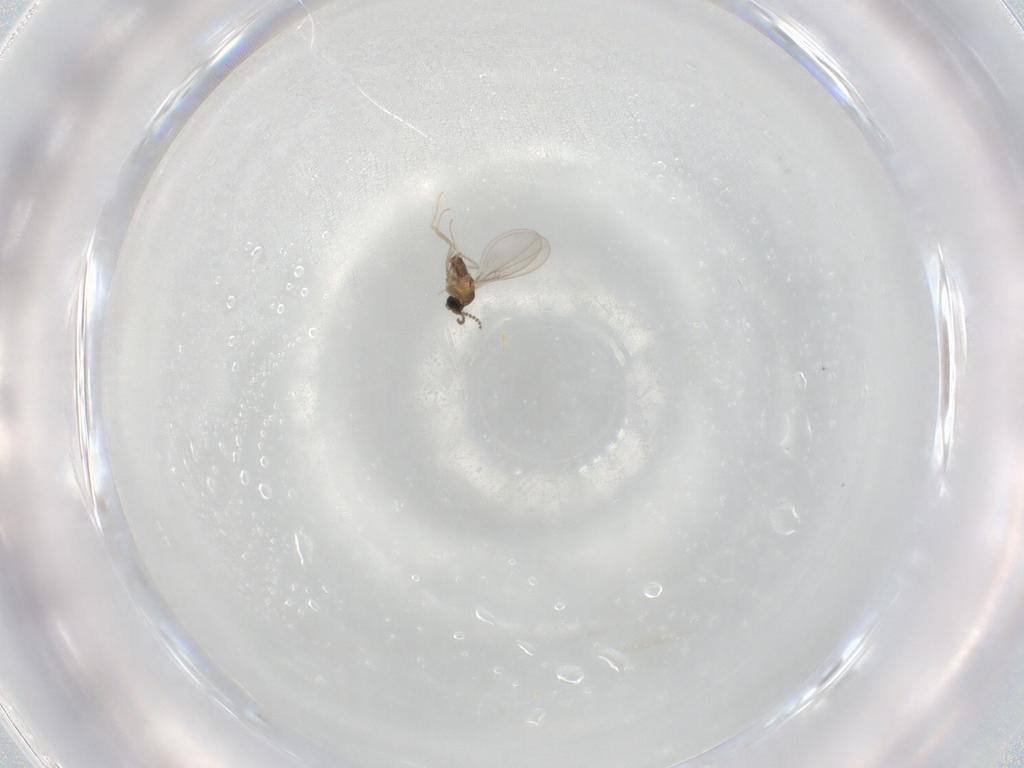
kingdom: Animalia
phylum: Arthropoda
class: Insecta
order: Diptera
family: Cecidomyiidae
